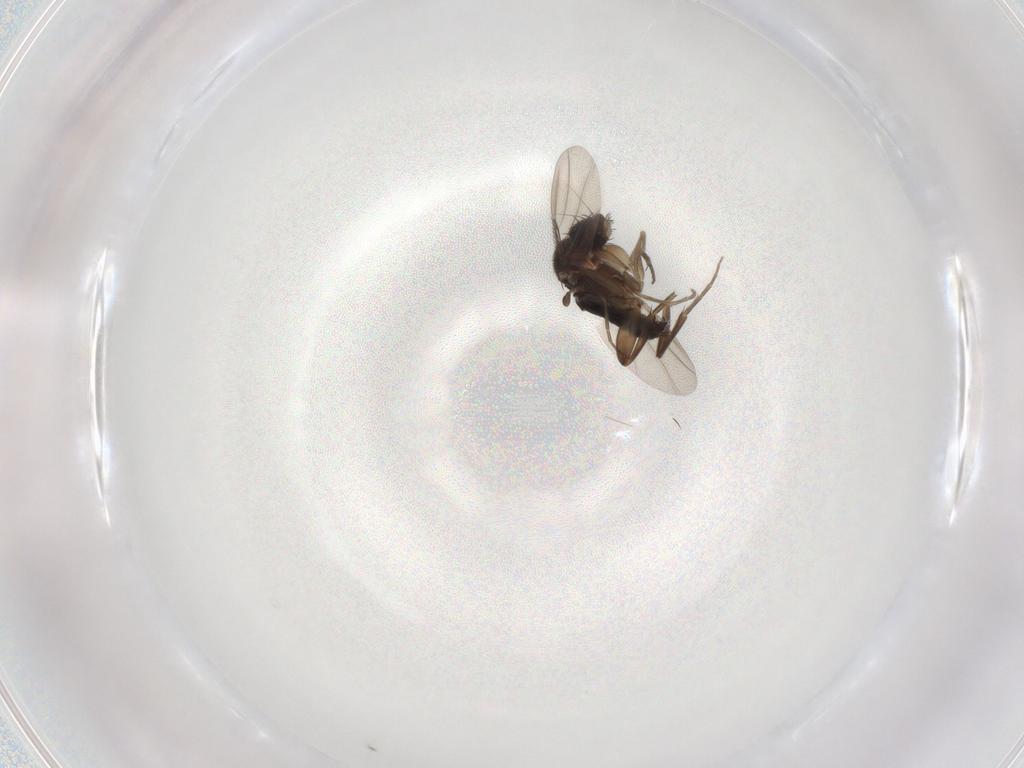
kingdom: Animalia
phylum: Arthropoda
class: Insecta
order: Diptera
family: Phoridae
